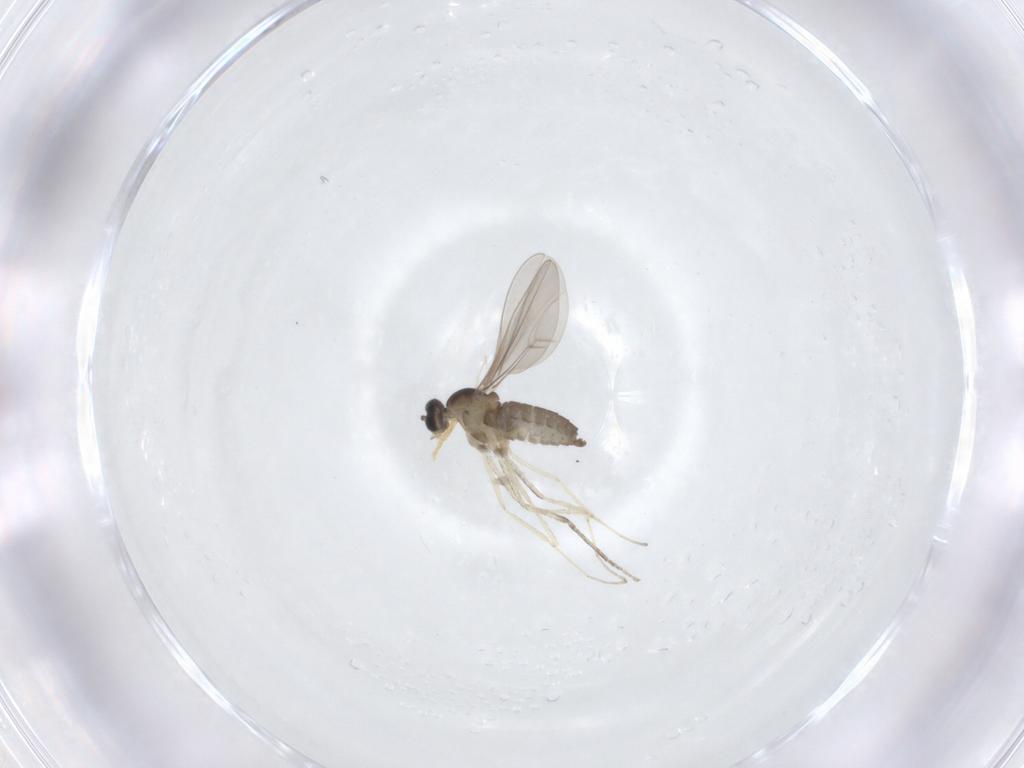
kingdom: Animalia
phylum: Arthropoda
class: Insecta
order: Diptera
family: Cecidomyiidae
